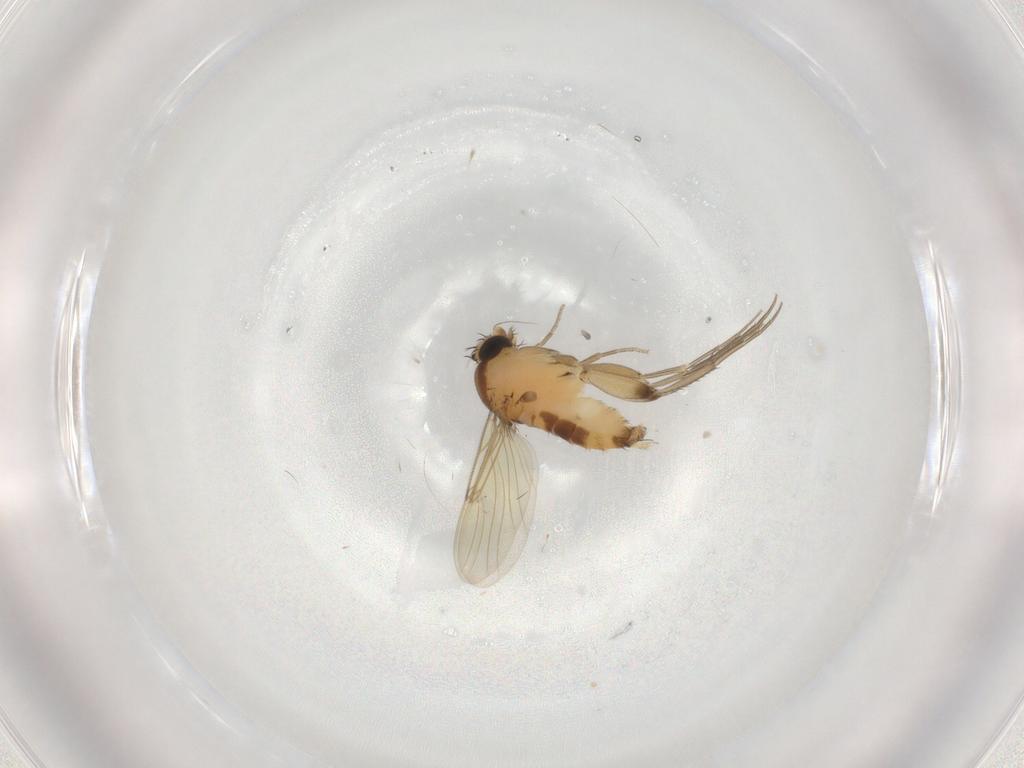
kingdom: Animalia
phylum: Arthropoda
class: Insecta
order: Diptera
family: Phoridae
